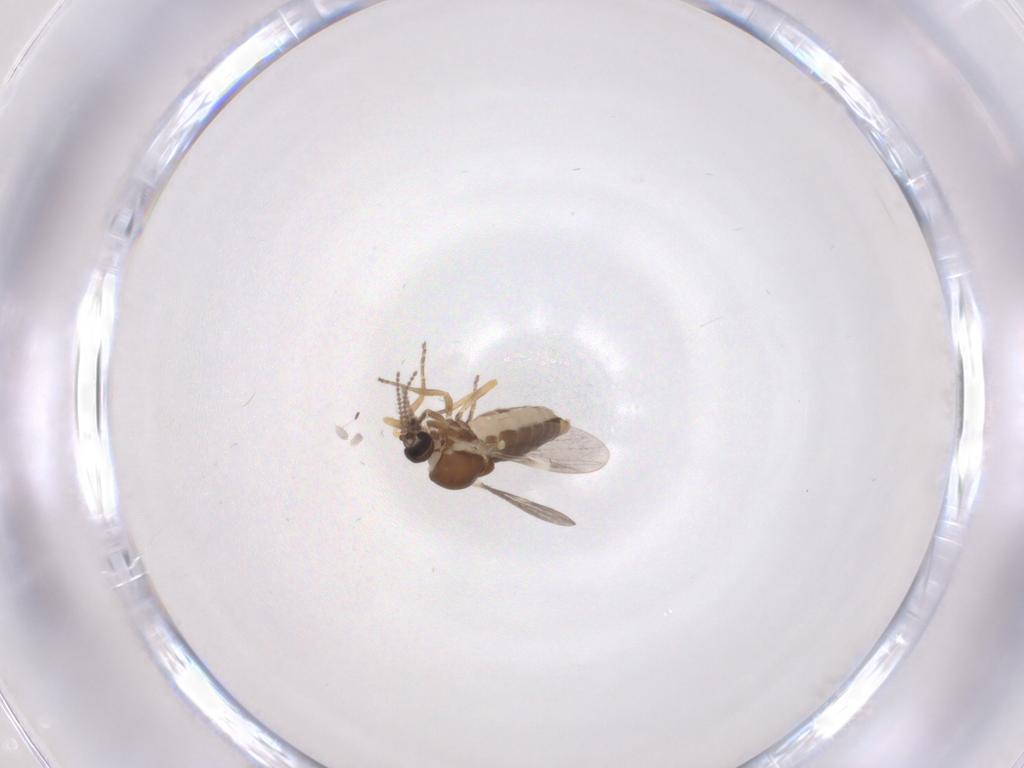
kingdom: Animalia
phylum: Arthropoda
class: Insecta
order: Diptera
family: Ceratopogonidae
